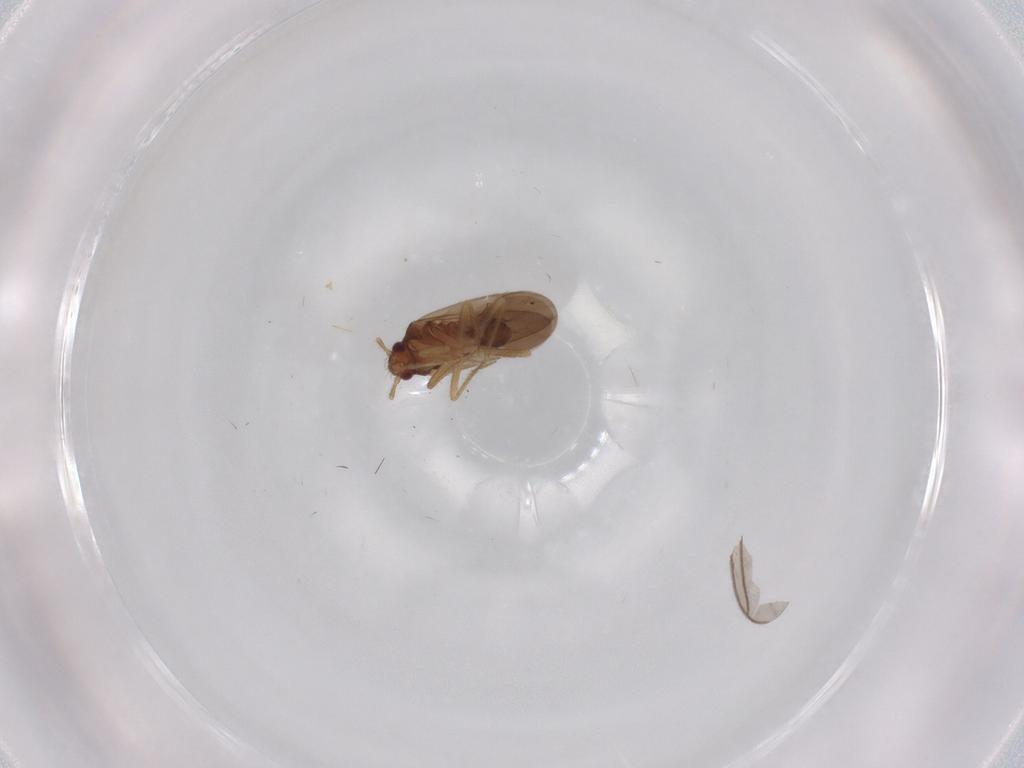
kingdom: Animalia
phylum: Arthropoda
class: Insecta
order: Hemiptera
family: Ceratocombidae
